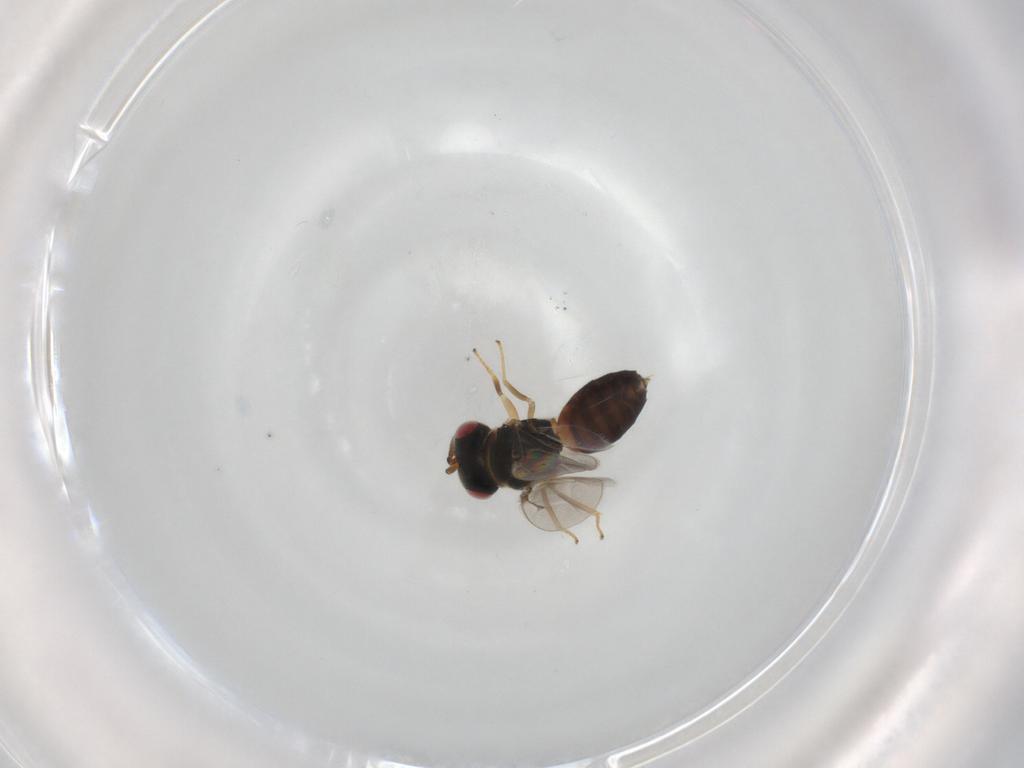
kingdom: Animalia
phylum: Arthropoda
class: Insecta
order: Hymenoptera
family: Pteromalidae
